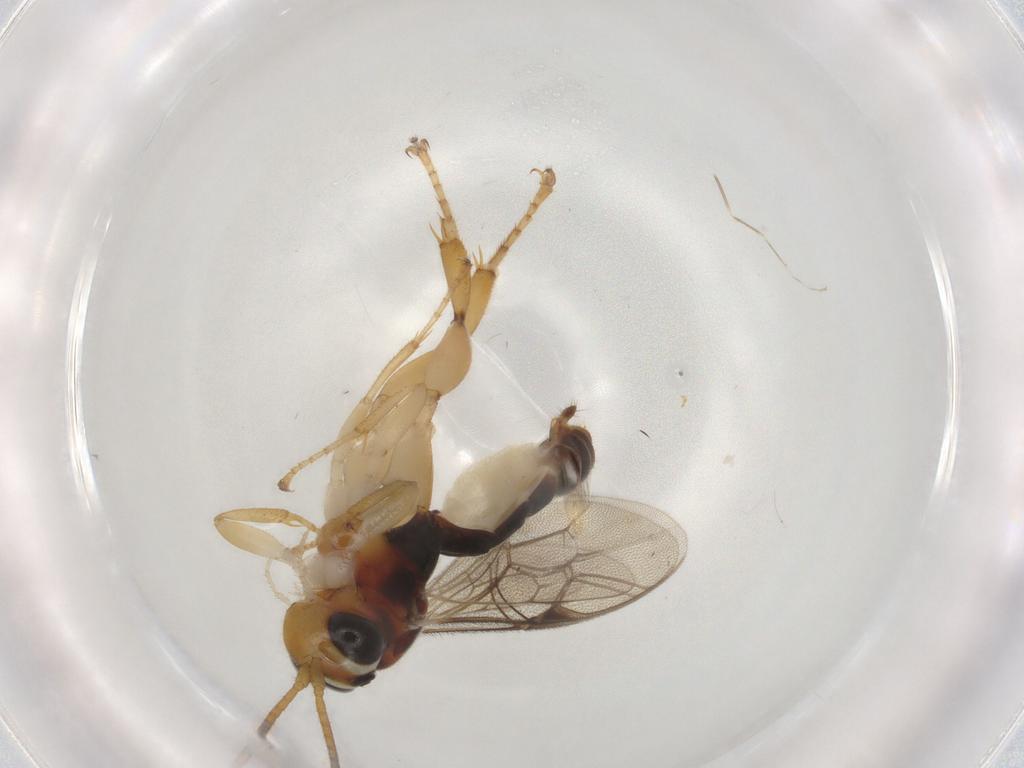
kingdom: Animalia
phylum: Arthropoda
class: Insecta
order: Hymenoptera
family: Ichneumonidae
